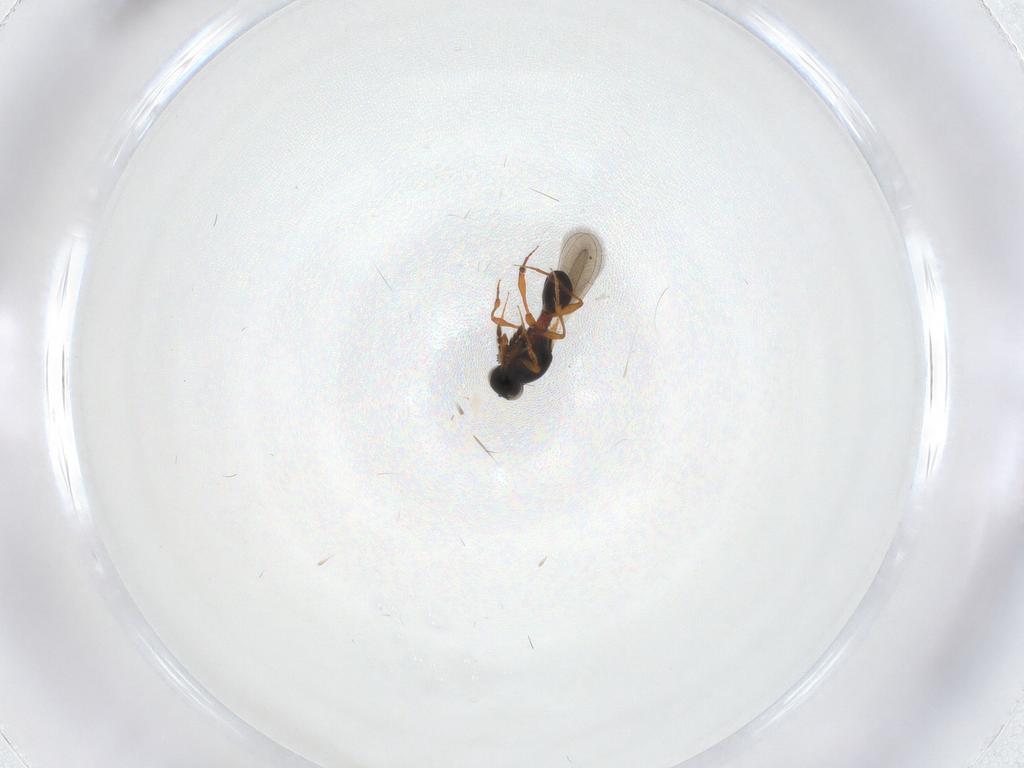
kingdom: Animalia
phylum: Arthropoda
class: Insecta
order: Hymenoptera
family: Platygastridae
